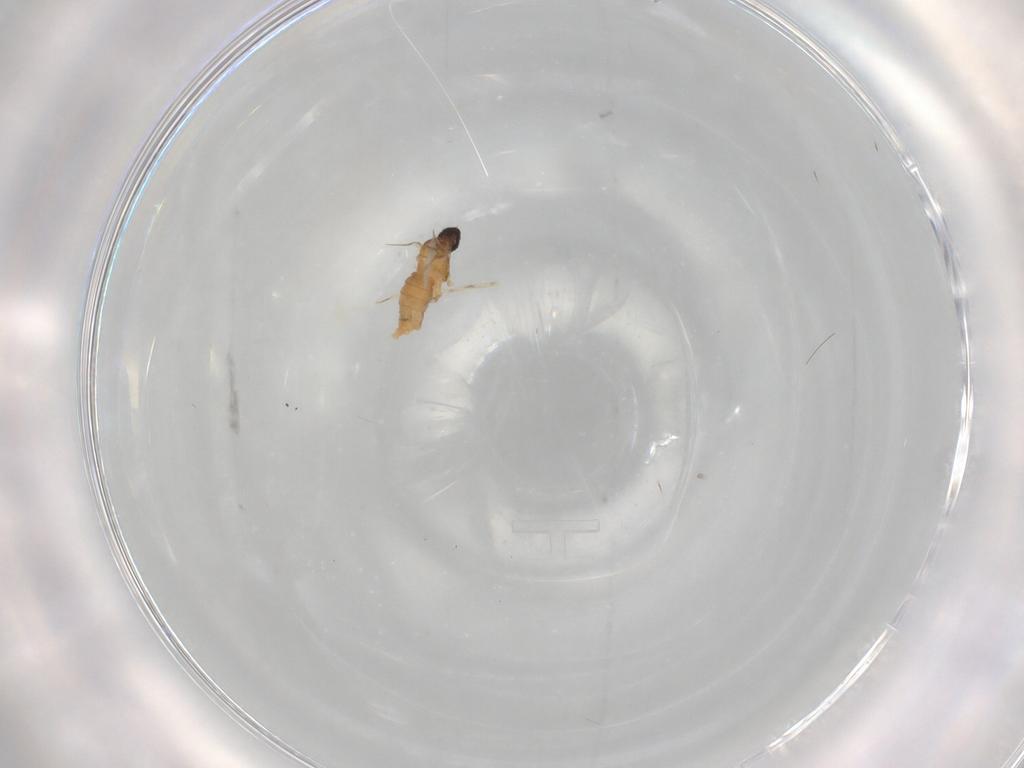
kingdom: Animalia
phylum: Arthropoda
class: Insecta
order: Diptera
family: Cecidomyiidae
